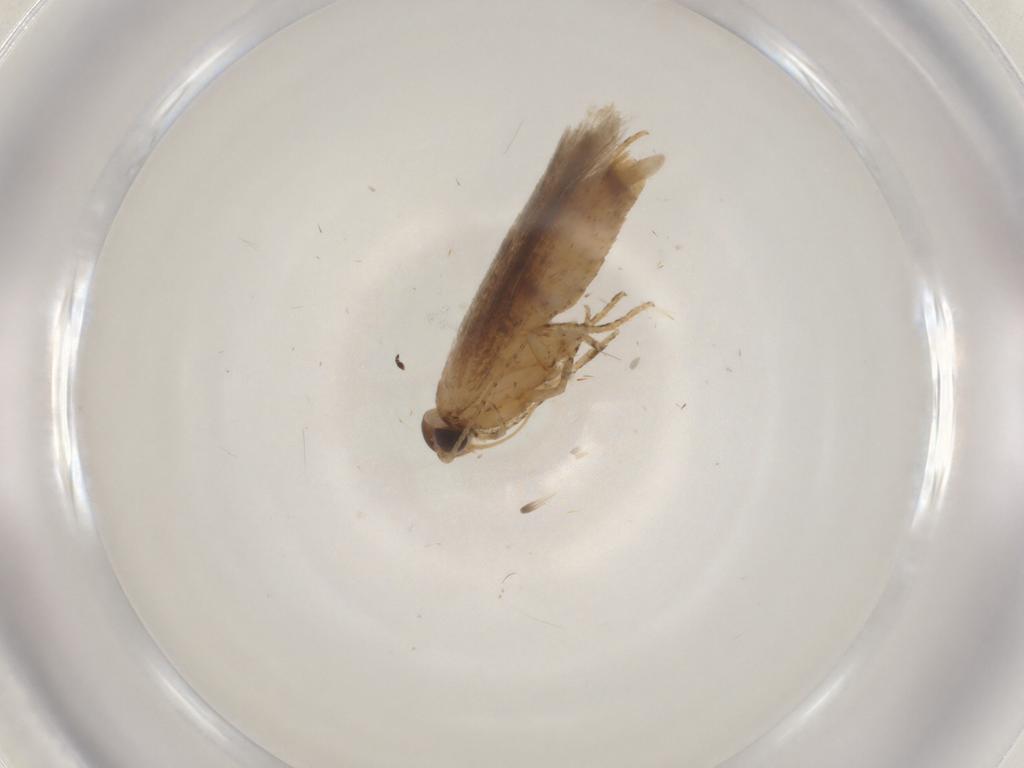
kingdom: Animalia
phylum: Arthropoda
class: Insecta
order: Lepidoptera
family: Gelechiidae
